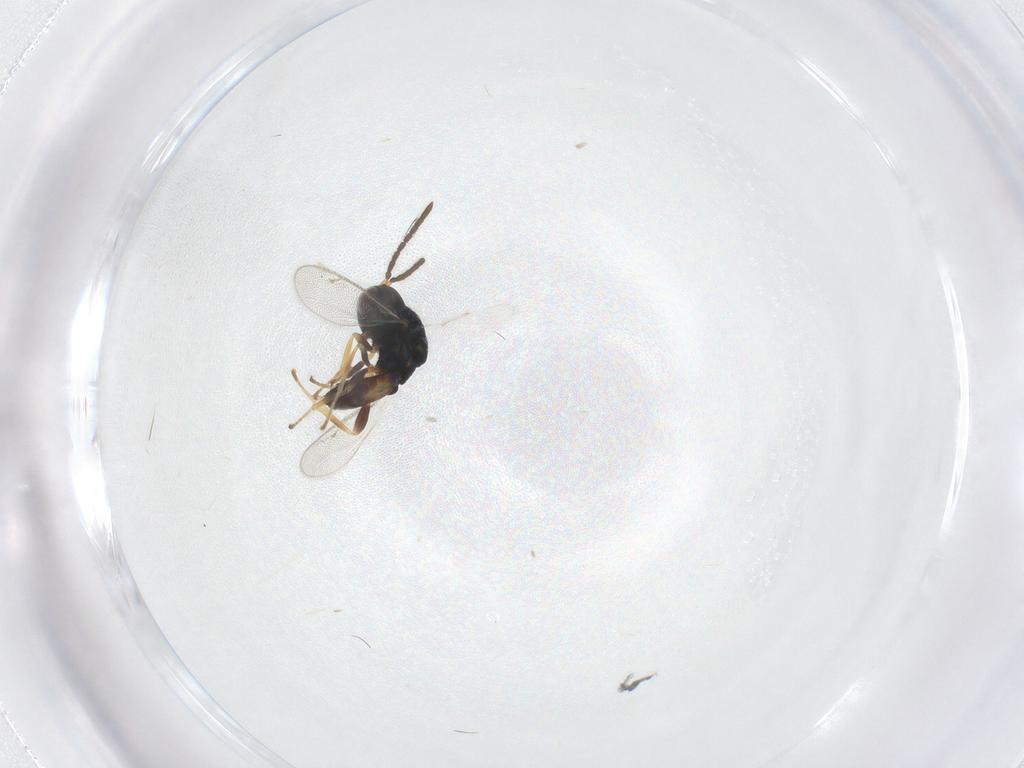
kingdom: Animalia
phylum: Arthropoda
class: Insecta
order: Hymenoptera
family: Pteromalidae
